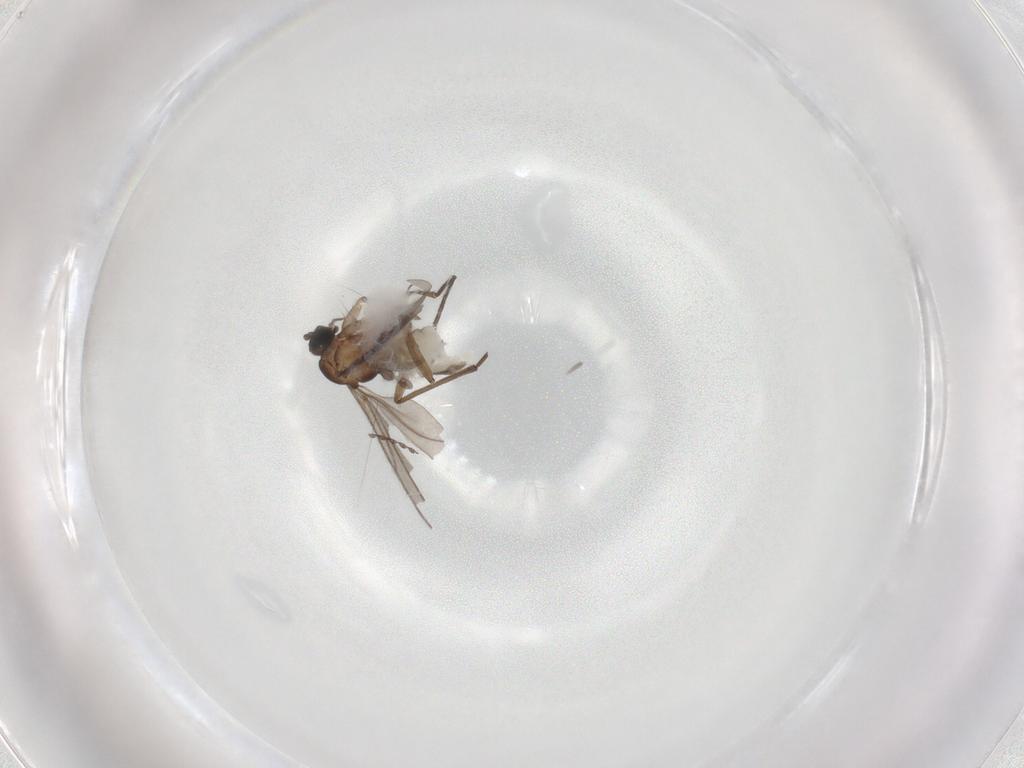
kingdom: Animalia
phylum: Arthropoda
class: Insecta
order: Diptera
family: Sciaridae
